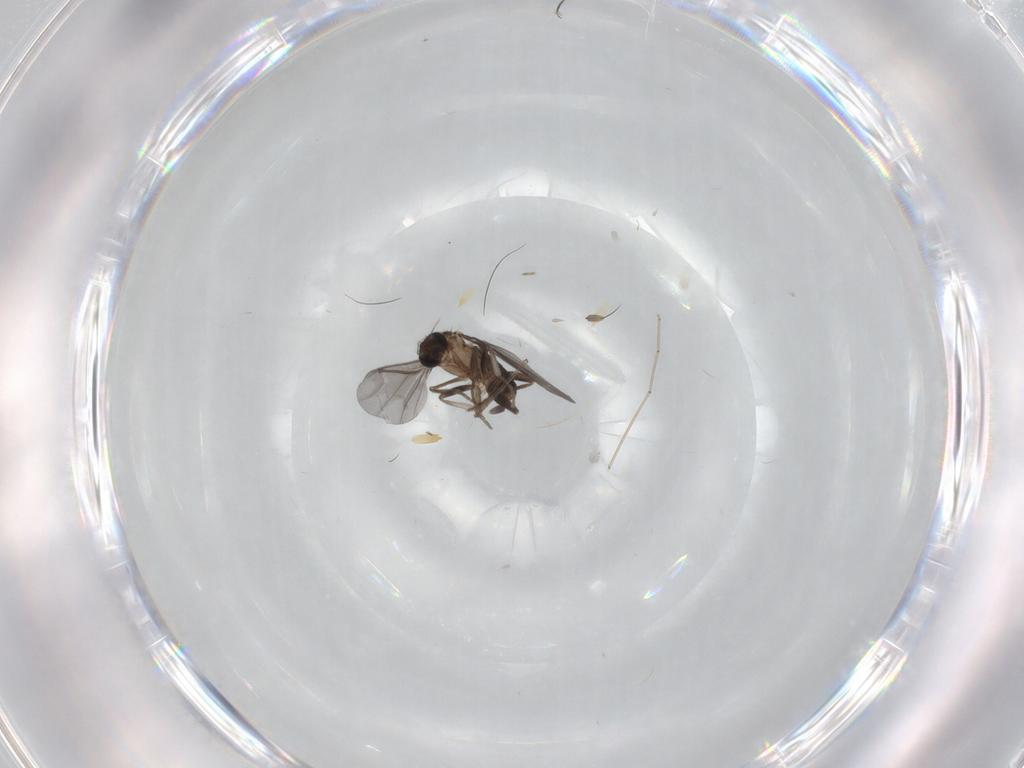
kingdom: Animalia
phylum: Arthropoda
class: Insecta
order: Diptera
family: Phoridae
